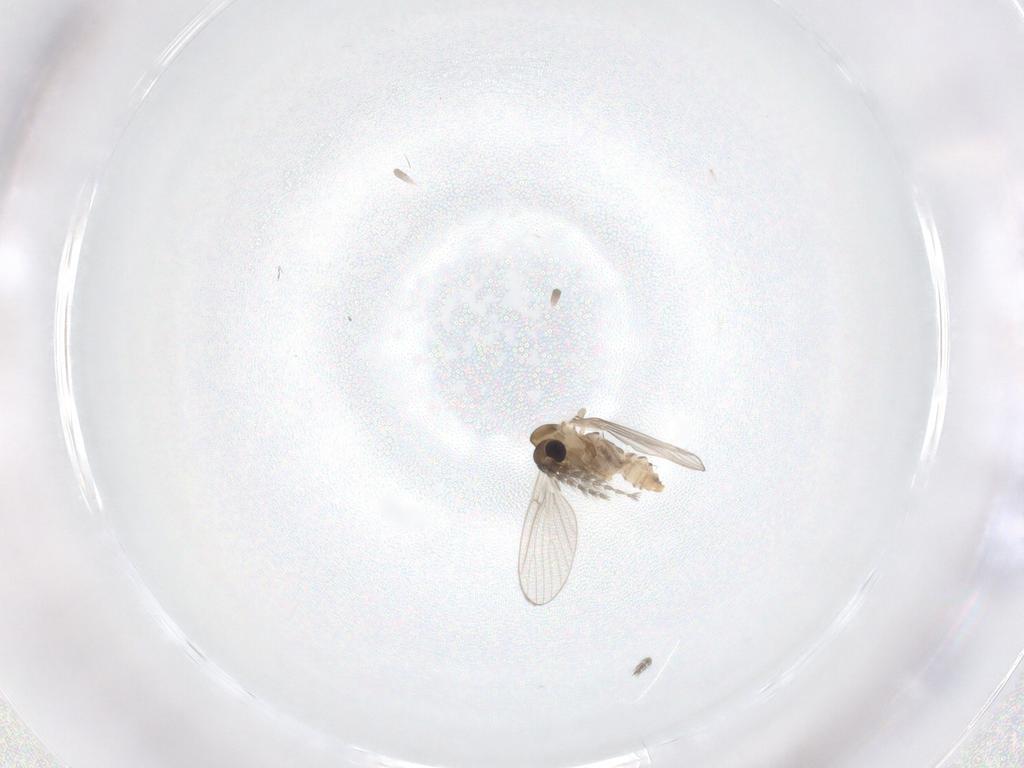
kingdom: Animalia
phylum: Arthropoda
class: Insecta
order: Diptera
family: Psychodidae
